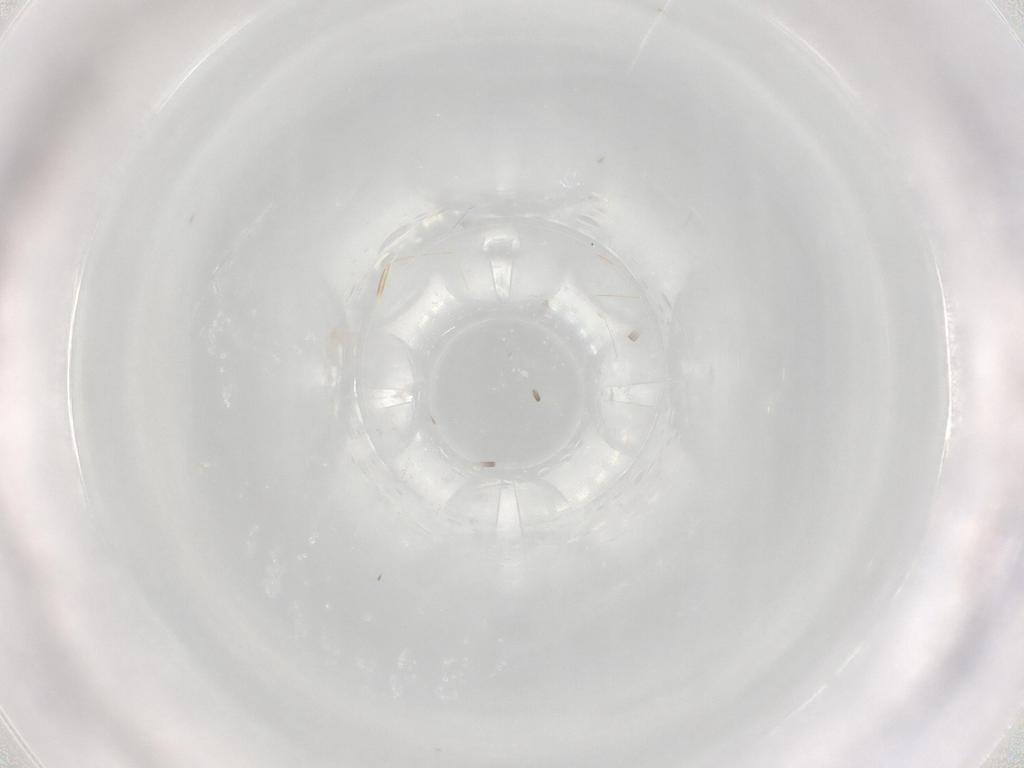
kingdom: Animalia
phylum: Arthropoda
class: Insecta
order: Diptera
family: Chironomidae
